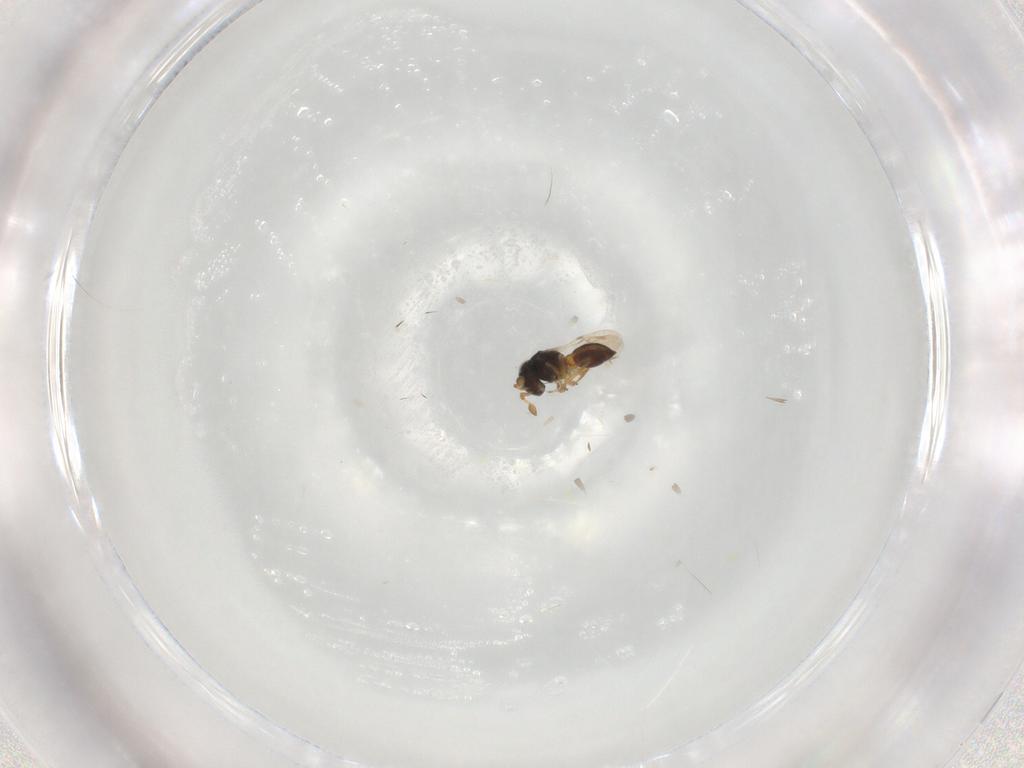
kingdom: Animalia
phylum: Arthropoda
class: Insecta
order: Hymenoptera
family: Scelionidae
